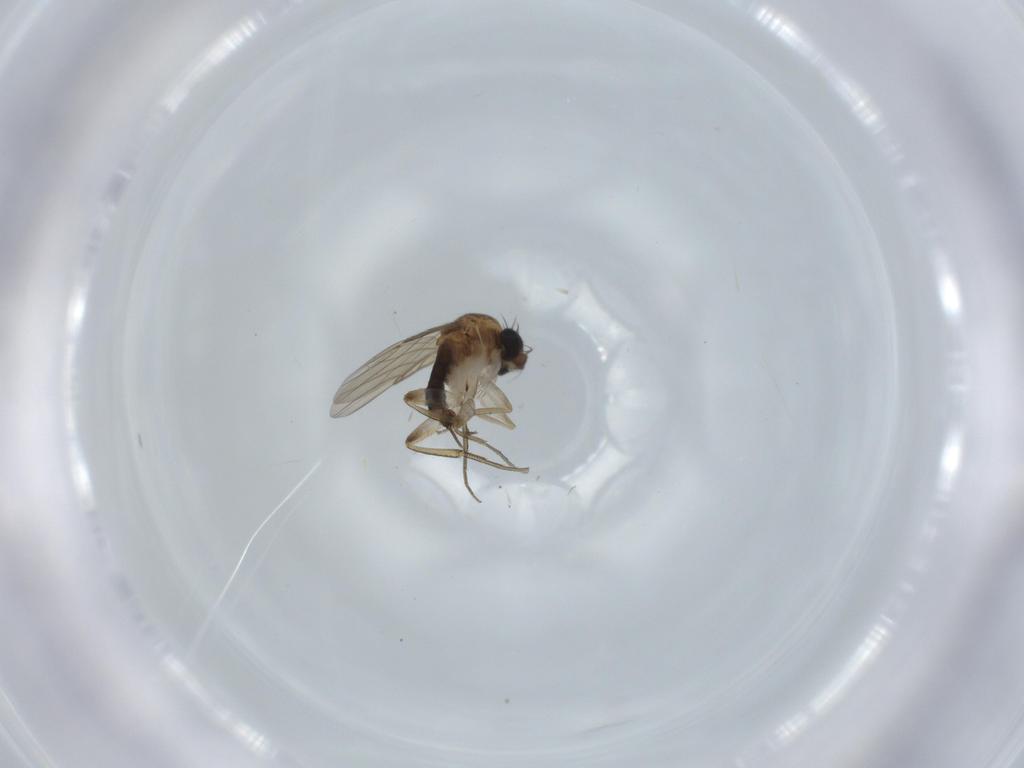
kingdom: Animalia
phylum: Arthropoda
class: Insecta
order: Diptera
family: Phoridae
